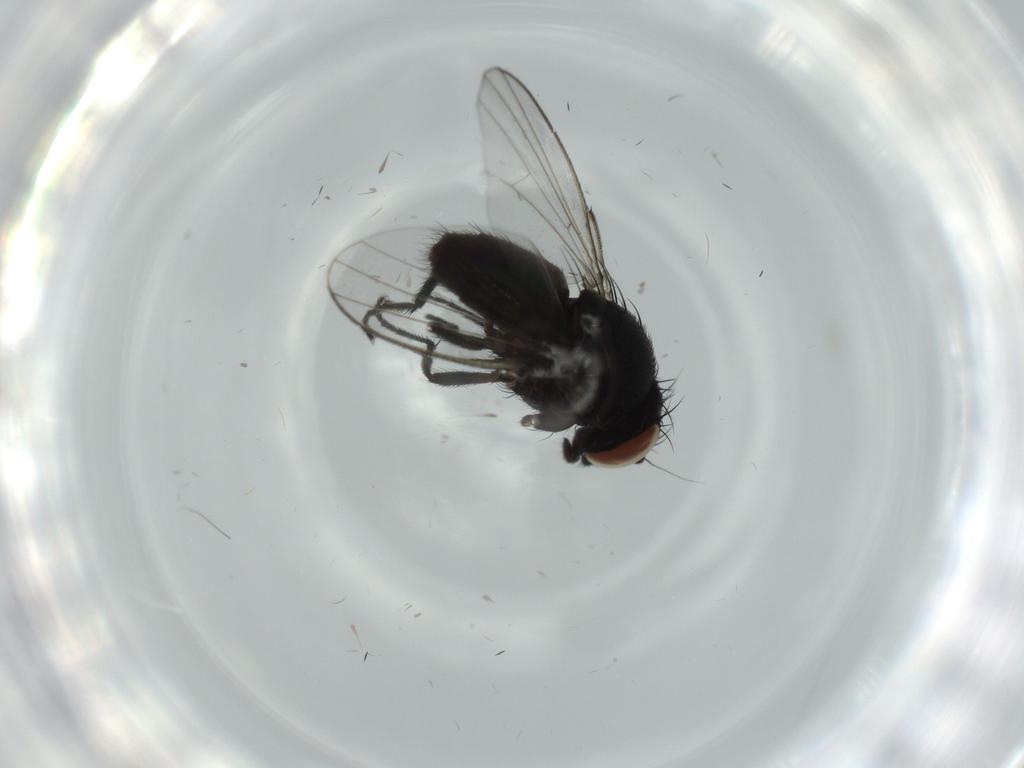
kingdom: Animalia
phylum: Arthropoda
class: Insecta
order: Diptera
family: Milichiidae
